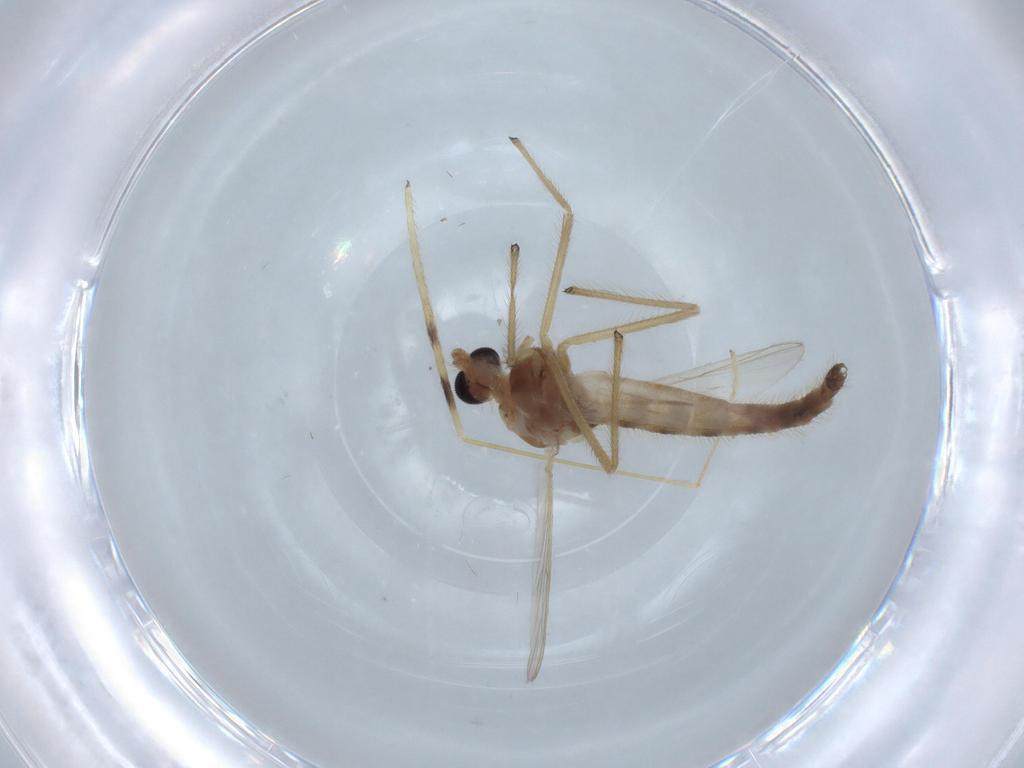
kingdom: Animalia
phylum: Arthropoda
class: Insecta
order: Diptera
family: Chironomidae
